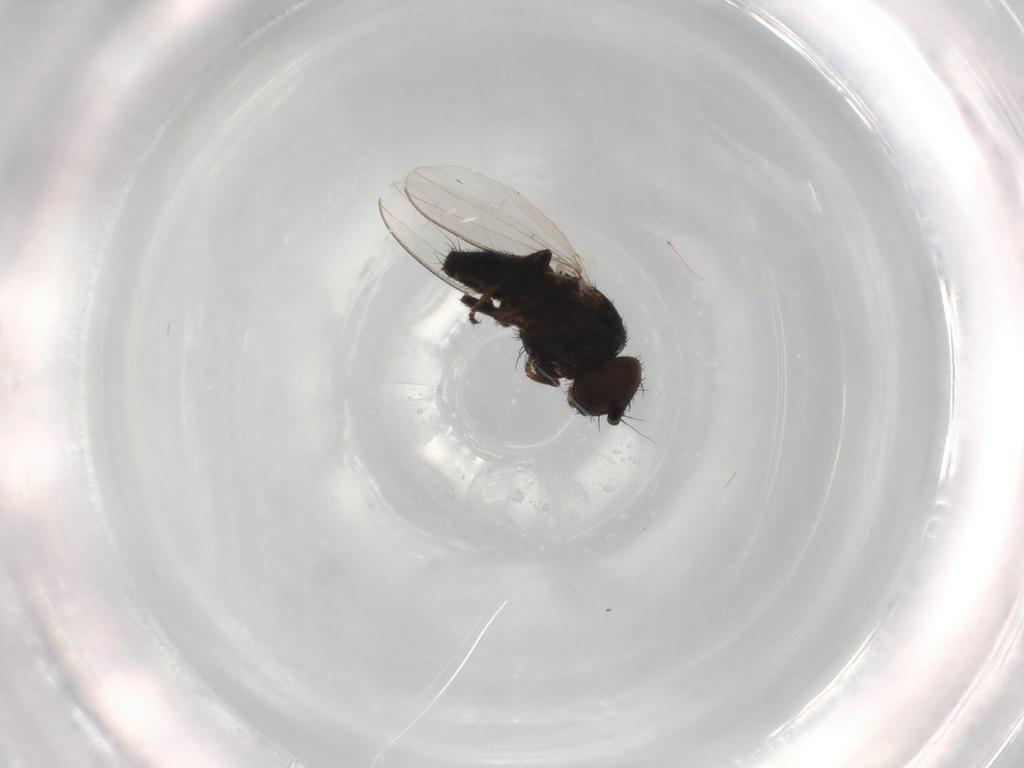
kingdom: Animalia
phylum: Arthropoda
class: Insecta
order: Diptera
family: Milichiidae
